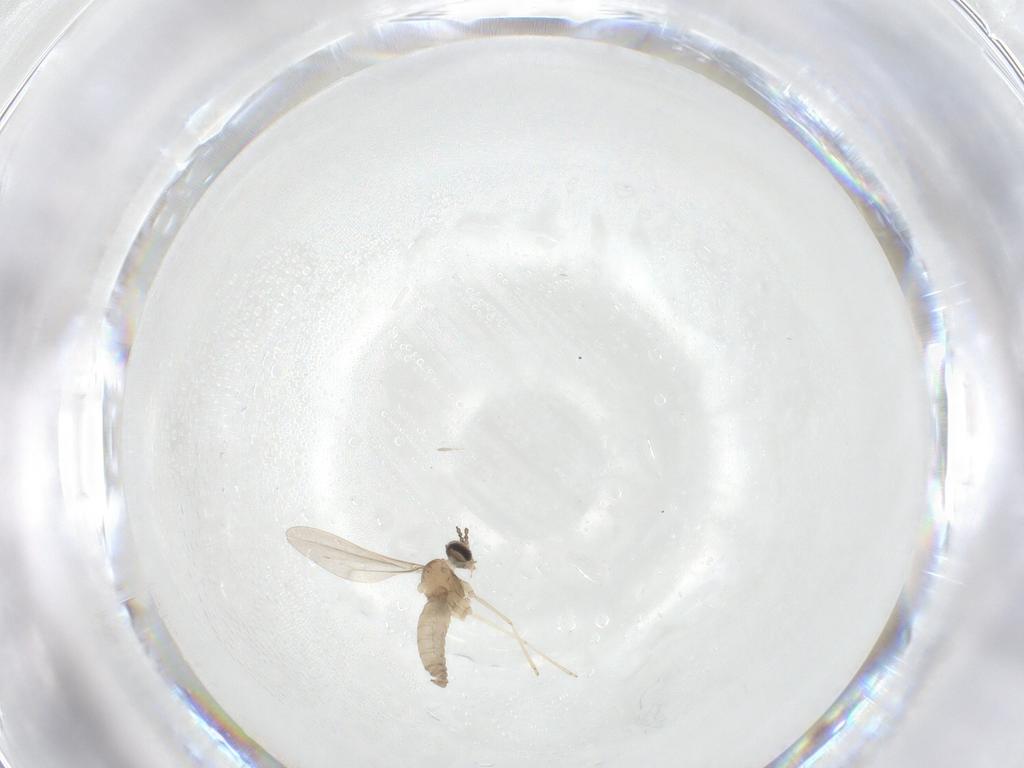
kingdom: Animalia
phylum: Arthropoda
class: Insecta
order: Diptera
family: Cecidomyiidae
